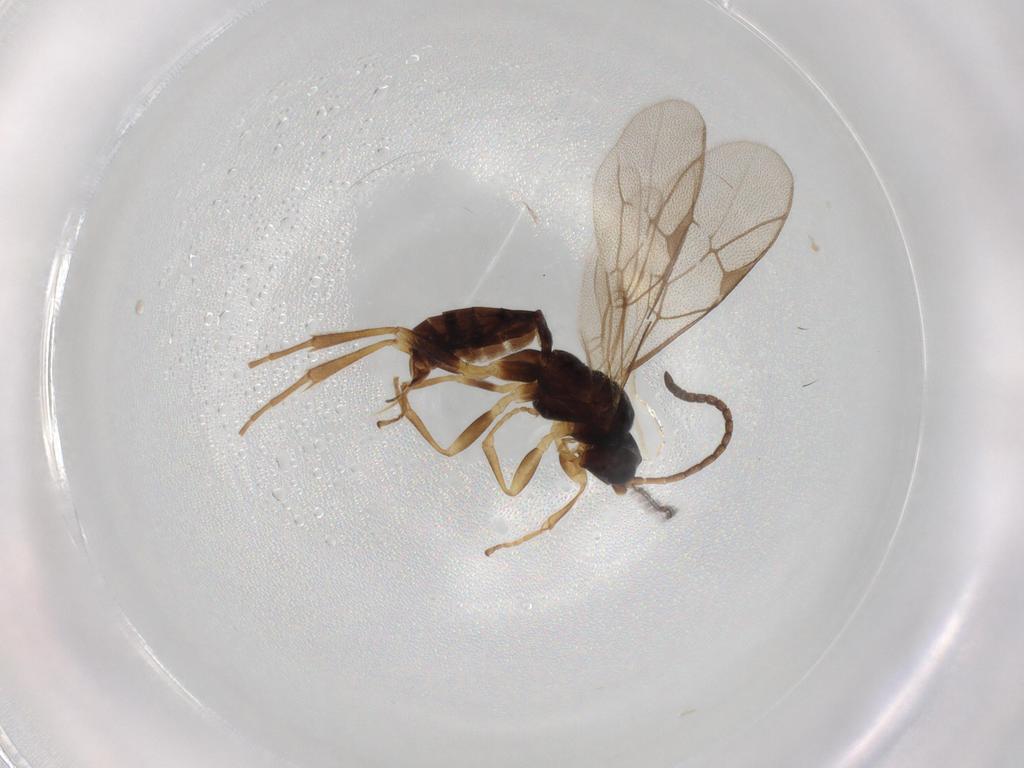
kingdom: Animalia
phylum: Arthropoda
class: Insecta
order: Hymenoptera
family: Ichneumonidae
